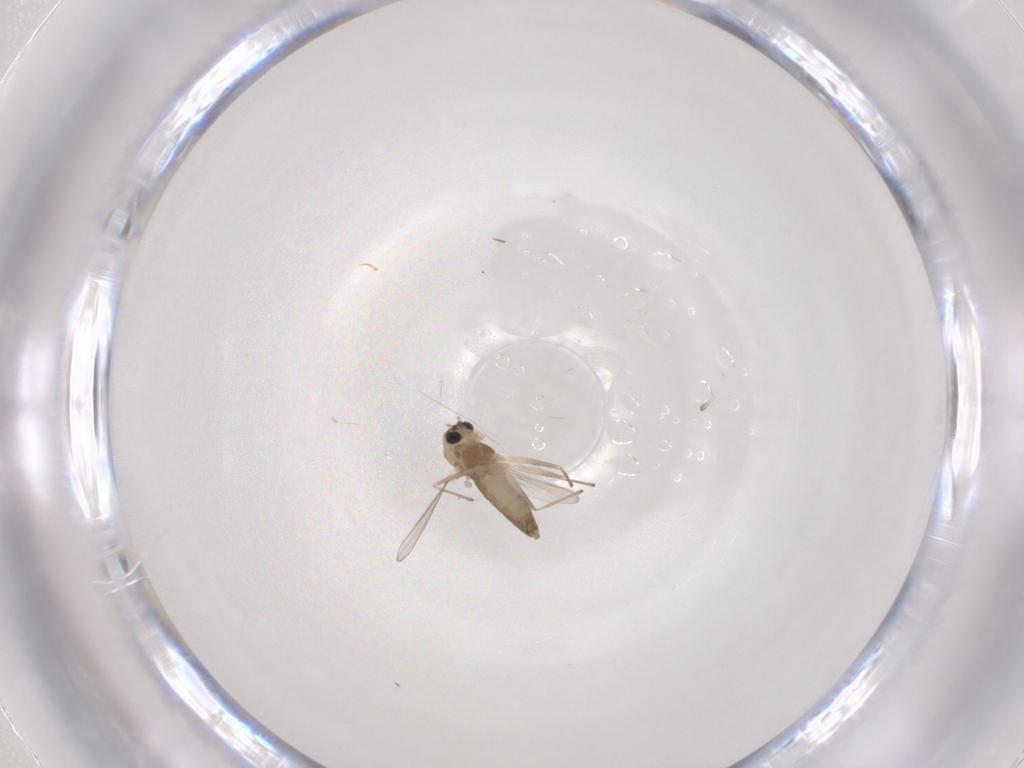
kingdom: Animalia
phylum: Arthropoda
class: Insecta
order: Diptera
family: Chironomidae
